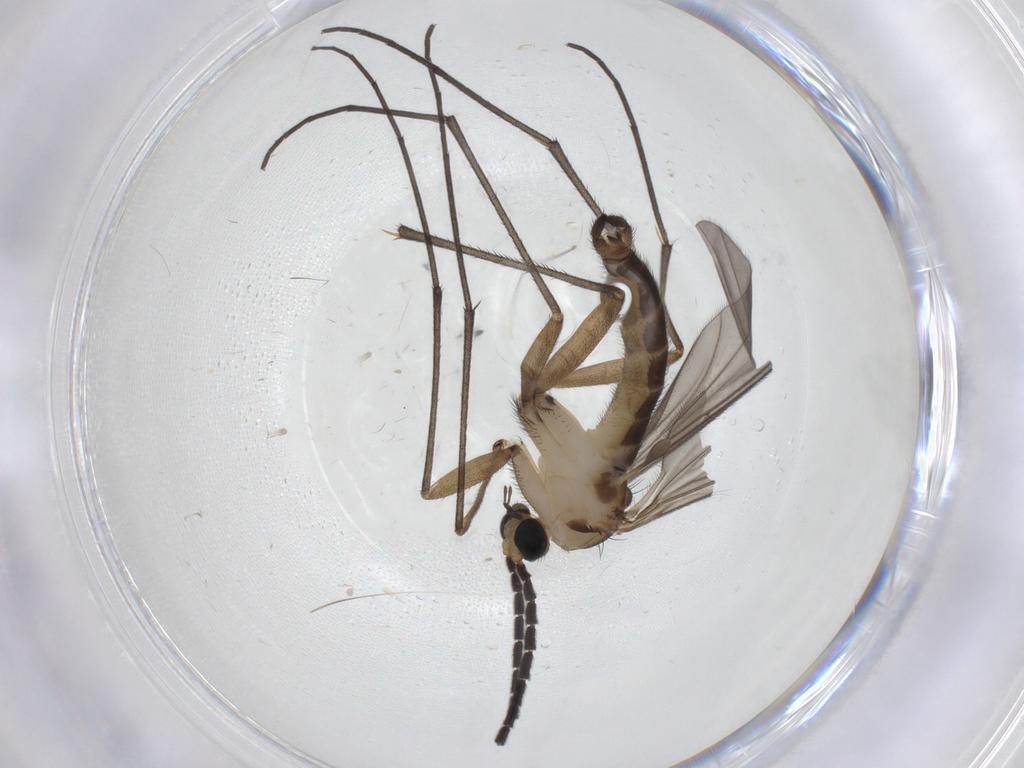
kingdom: Animalia
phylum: Arthropoda
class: Insecta
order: Diptera
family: Sciaridae
